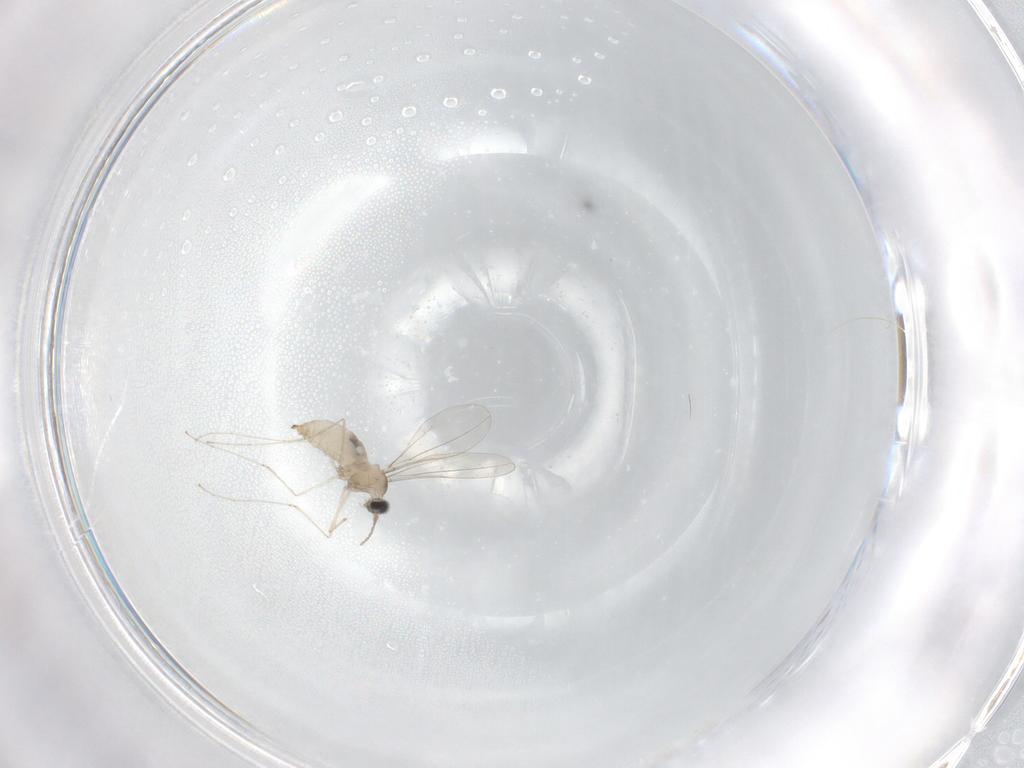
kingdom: Animalia
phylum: Arthropoda
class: Insecta
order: Diptera
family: Cecidomyiidae
